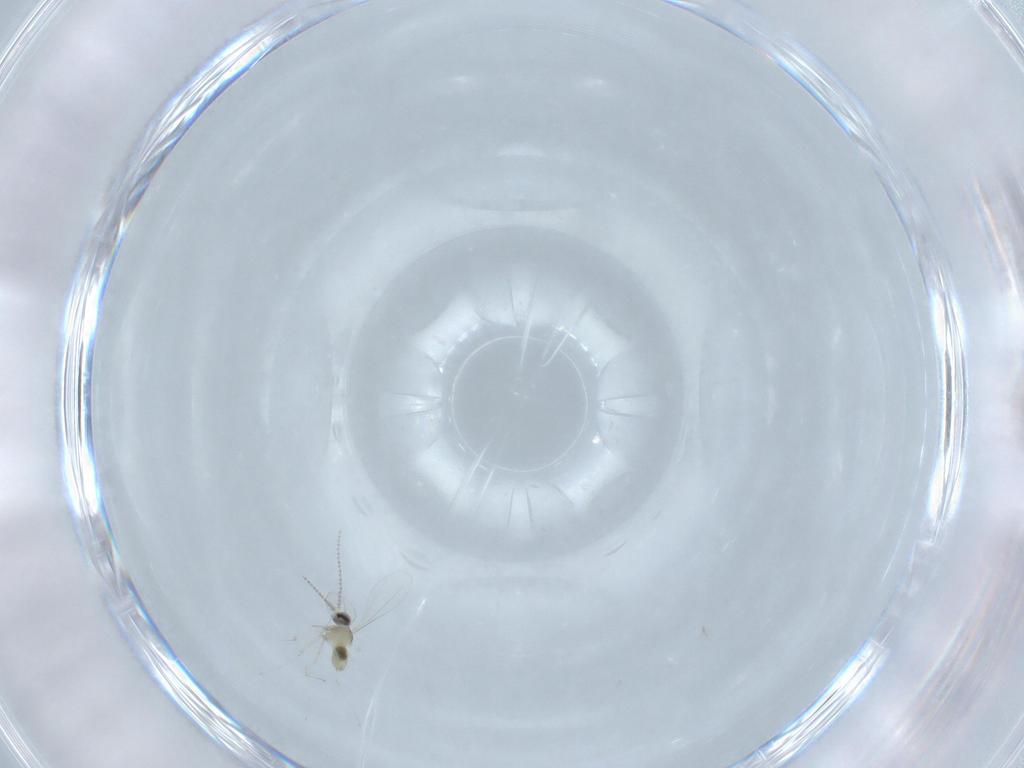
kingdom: Animalia
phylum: Arthropoda
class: Insecta
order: Diptera
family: Cecidomyiidae
